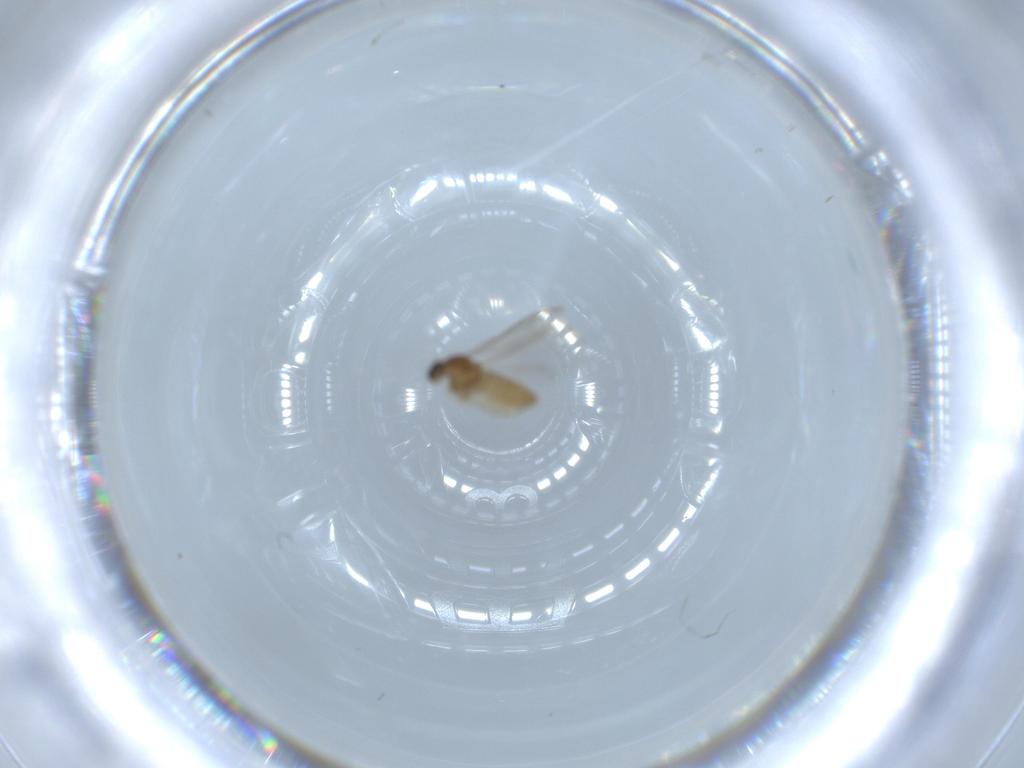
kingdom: Animalia
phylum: Arthropoda
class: Insecta
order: Diptera
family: Cecidomyiidae
